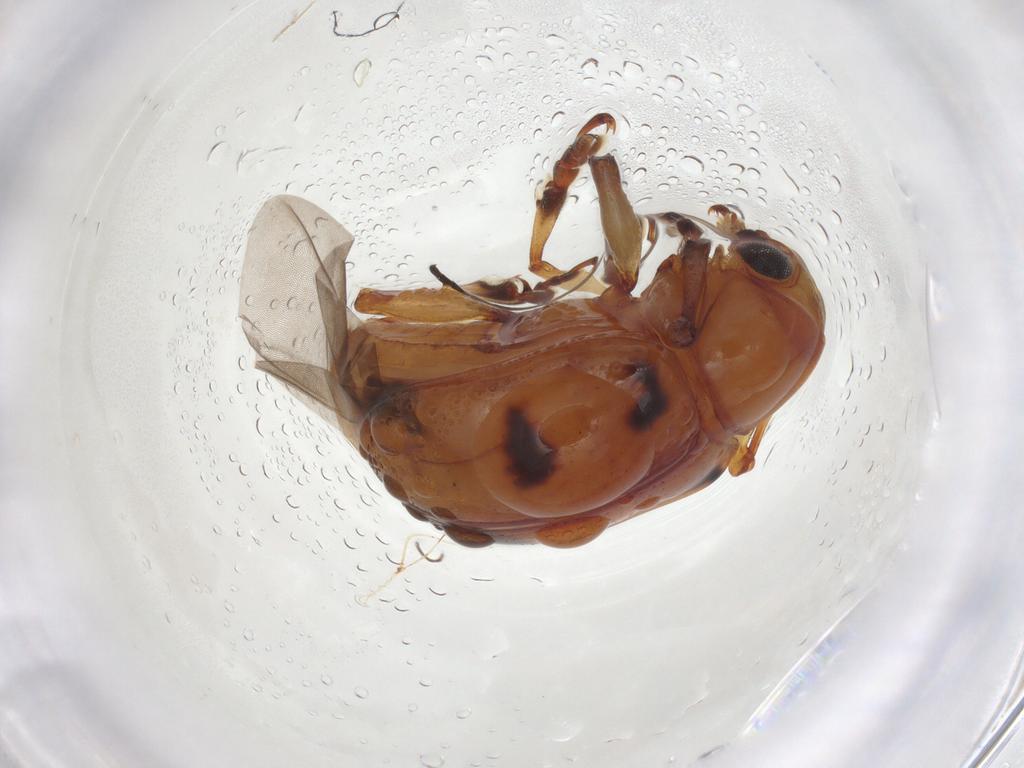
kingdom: Animalia
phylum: Arthropoda
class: Insecta
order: Coleoptera
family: Chrysomelidae
